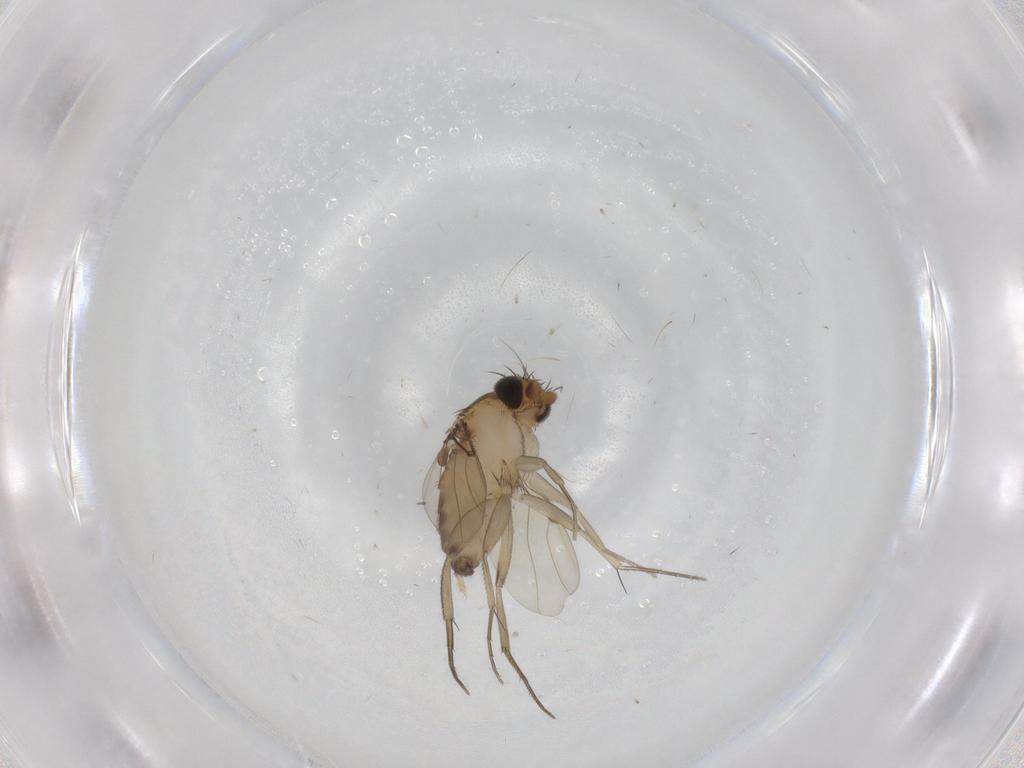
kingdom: Animalia
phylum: Arthropoda
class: Insecta
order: Diptera
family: Phoridae
